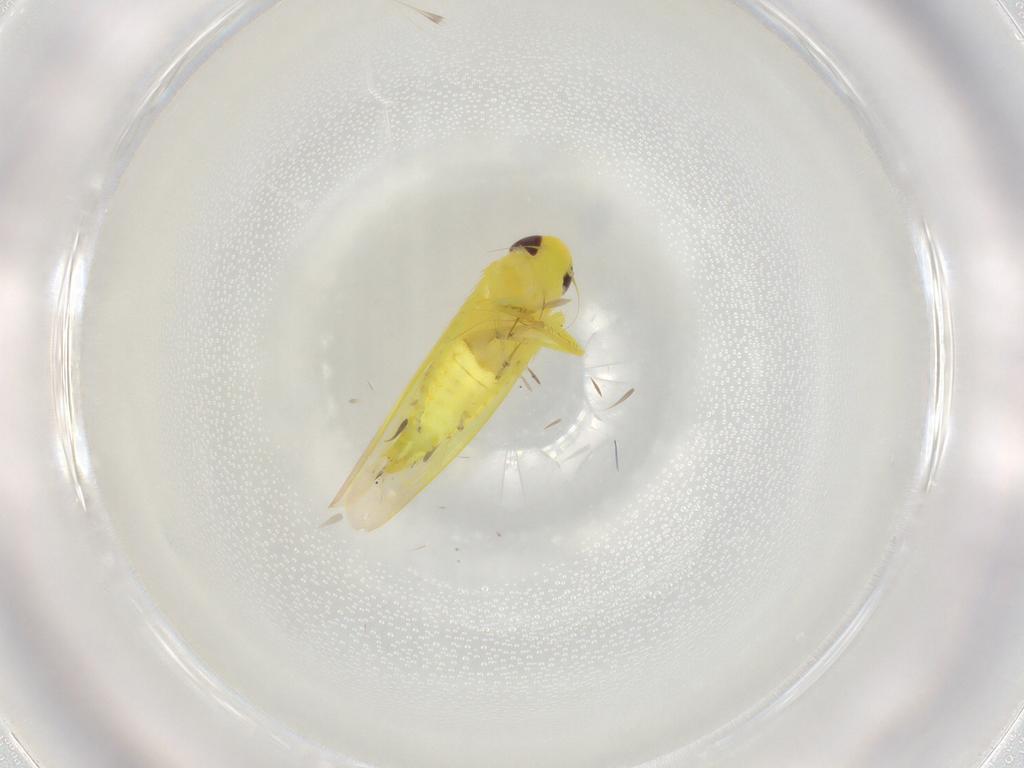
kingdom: Animalia
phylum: Arthropoda
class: Insecta
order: Hemiptera
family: Cicadellidae
